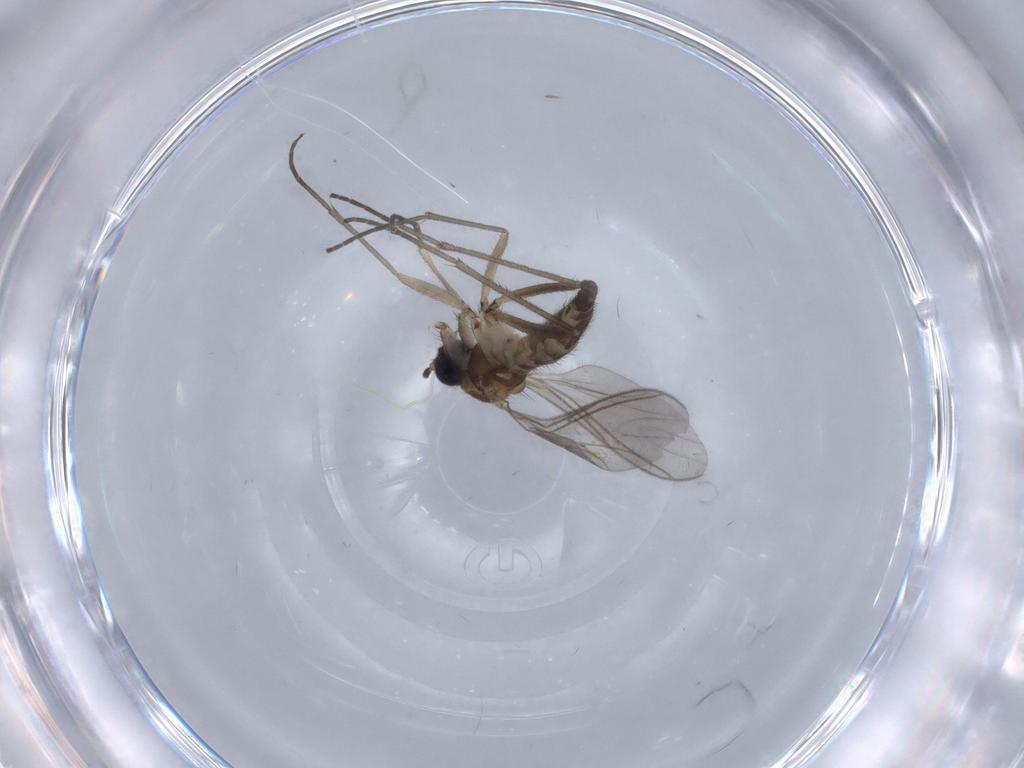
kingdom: Animalia
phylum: Arthropoda
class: Insecta
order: Diptera
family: Sciaridae
